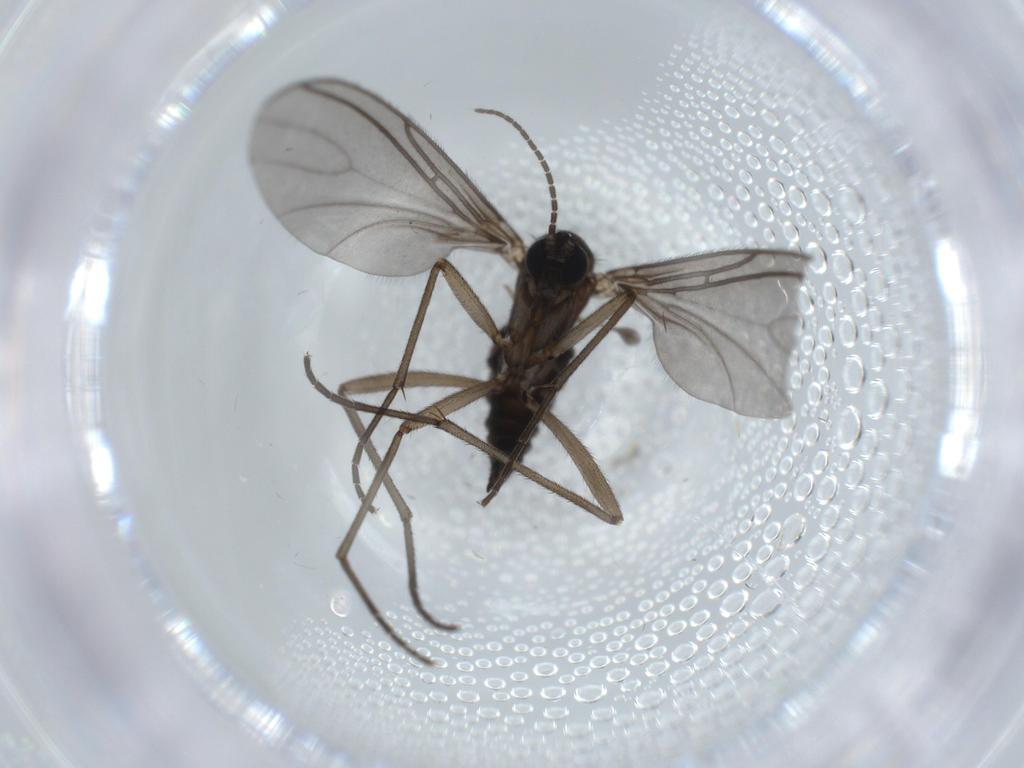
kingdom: Animalia
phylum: Arthropoda
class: Insecta
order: Diptera
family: Sciaridae
